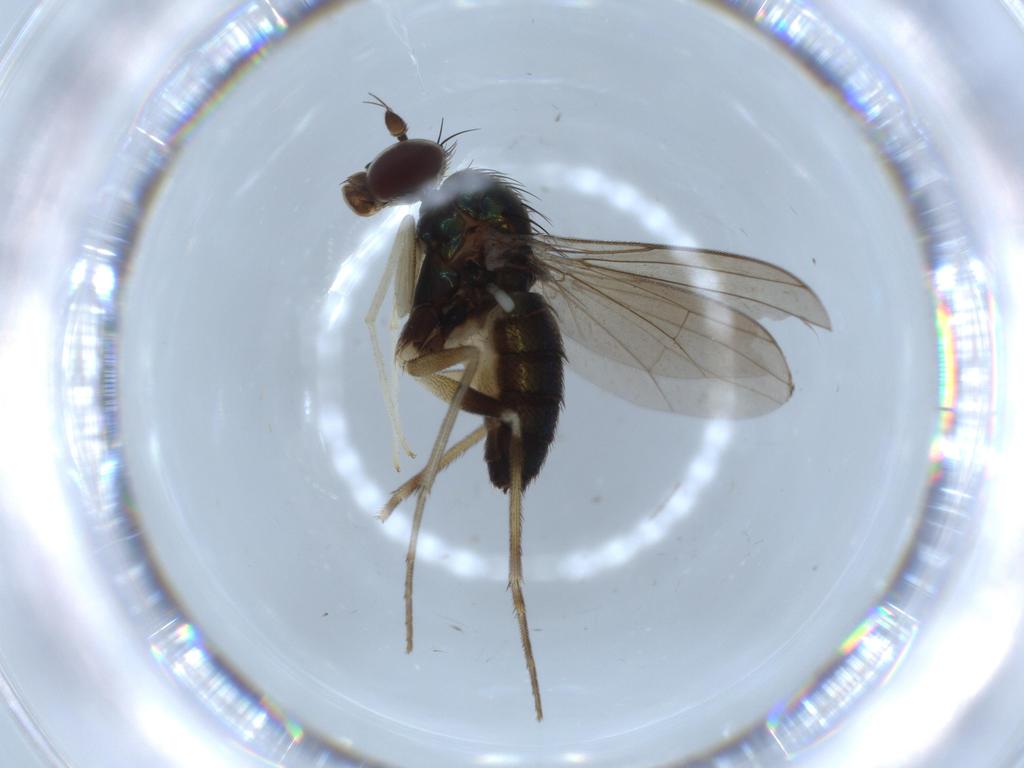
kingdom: Animalia
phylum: Arthropoda
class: Insecta
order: Diptera
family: Dolichopodidae
